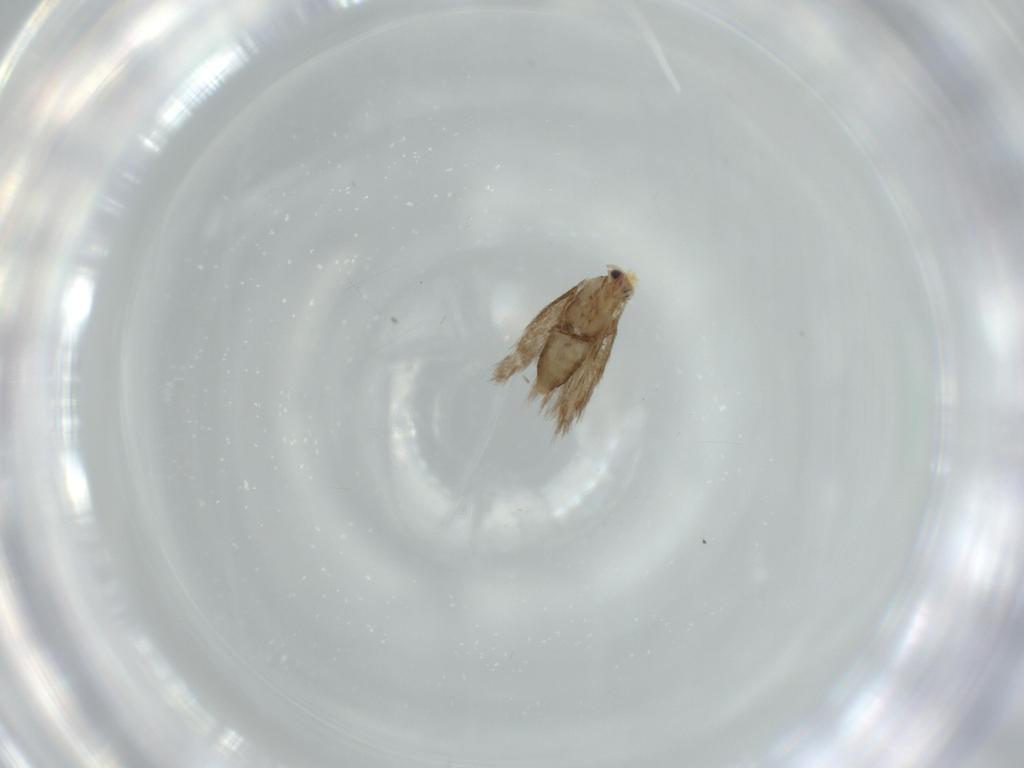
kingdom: Animalia
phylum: Arthropoda
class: Insecta
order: Lepidoptera
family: Nepticulidae
